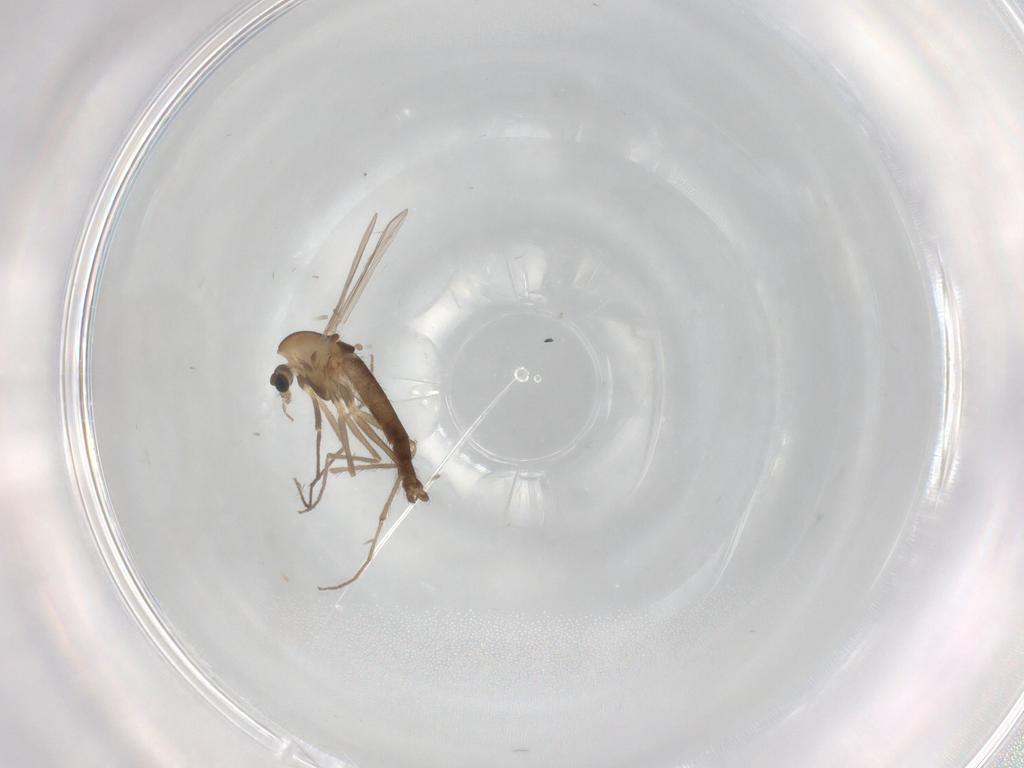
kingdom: Animalia
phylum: Arthropoda
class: Insecta
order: Diptera
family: Chironomidae
